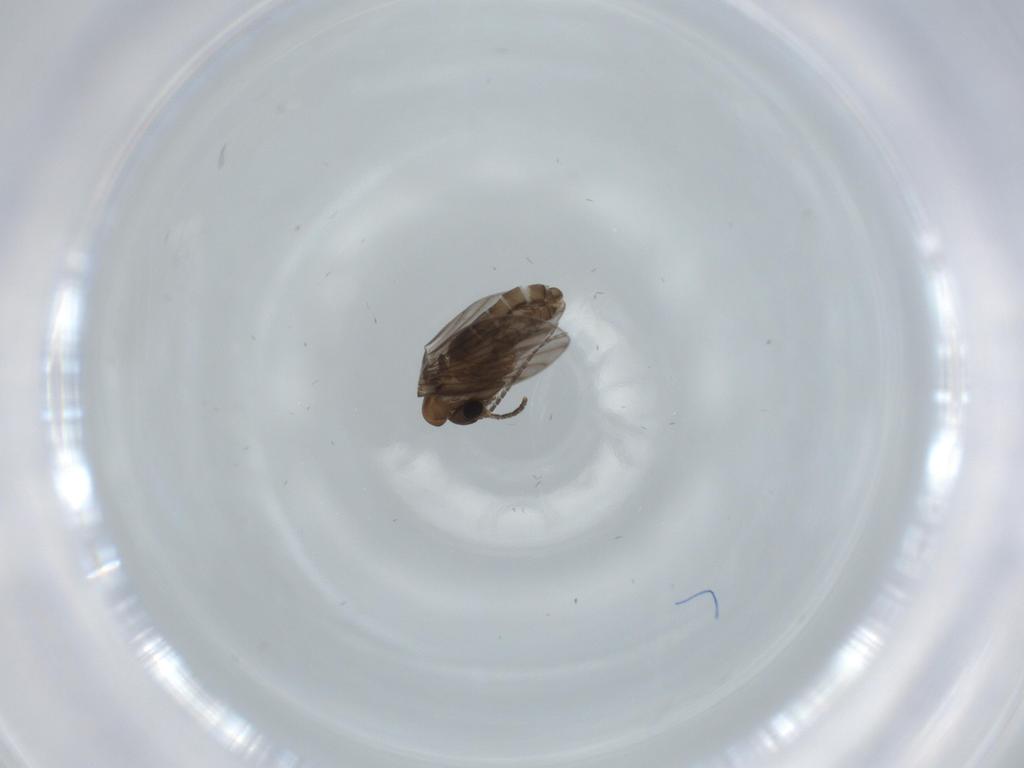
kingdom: Animalia
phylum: Arthropoda
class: Insecta
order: Diptera
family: Psychodidae
